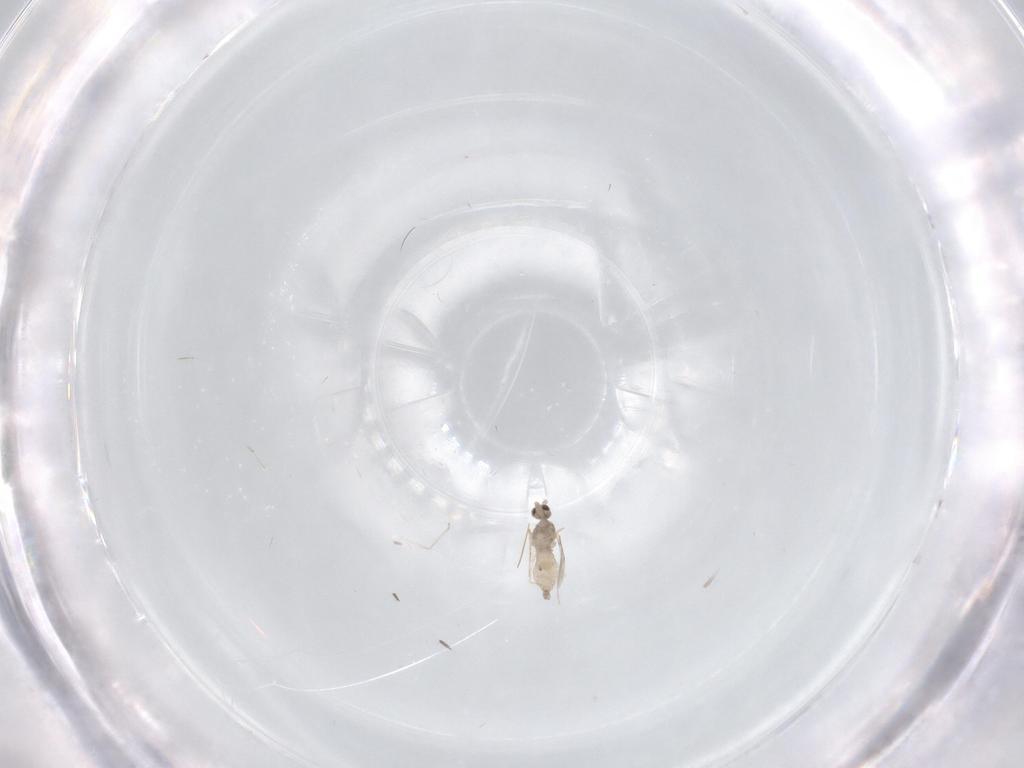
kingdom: Animalia
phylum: Arthropoda
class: Insecta
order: Diptera
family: Cecidomyiidae
